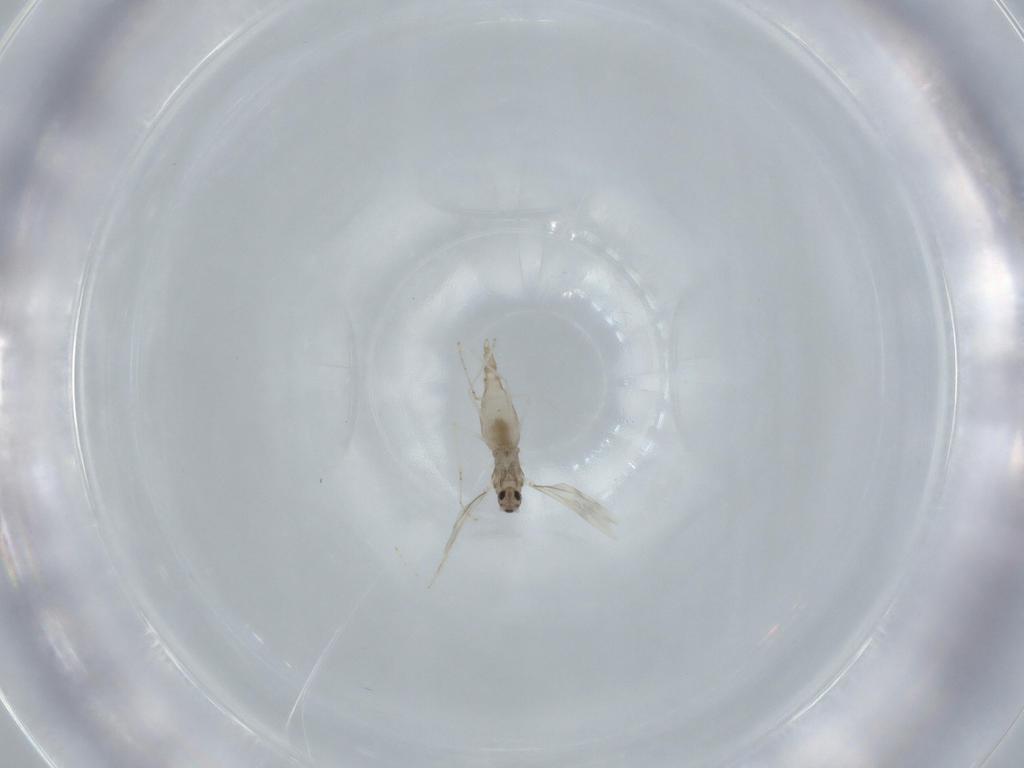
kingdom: Animalia
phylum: Arthropoda
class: Insecta
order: Diptera
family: Cecidomyiidae
